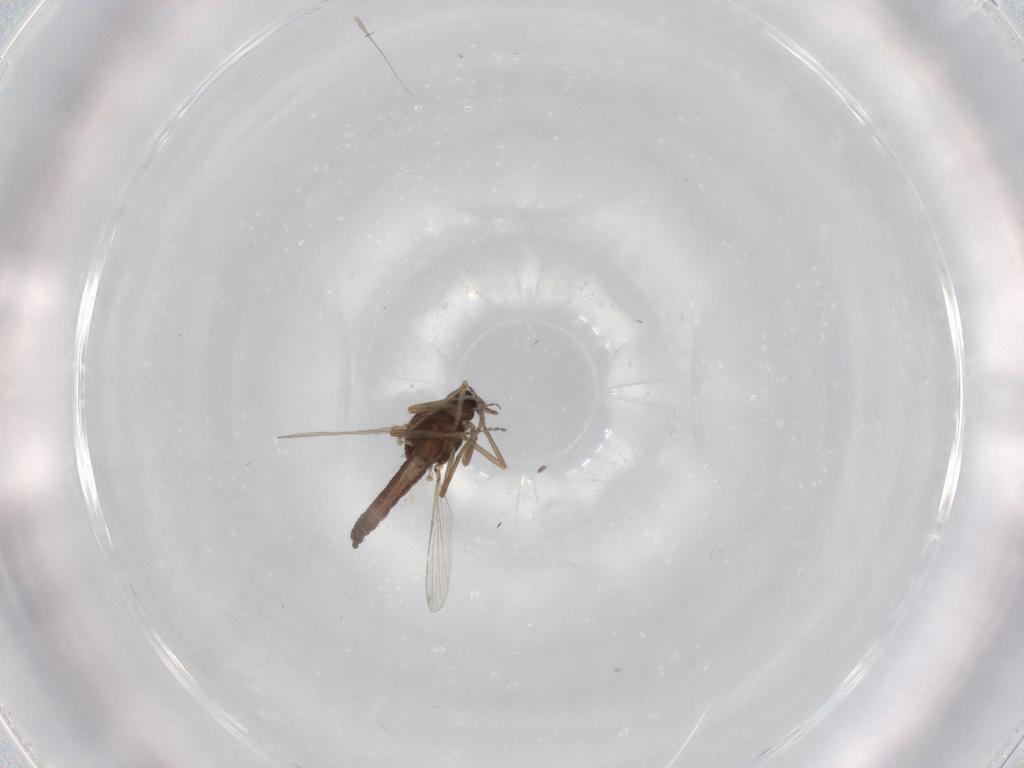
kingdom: Animalia
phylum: Arthropoda
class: Insecta
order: Diptera
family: Ceratopogonidae
